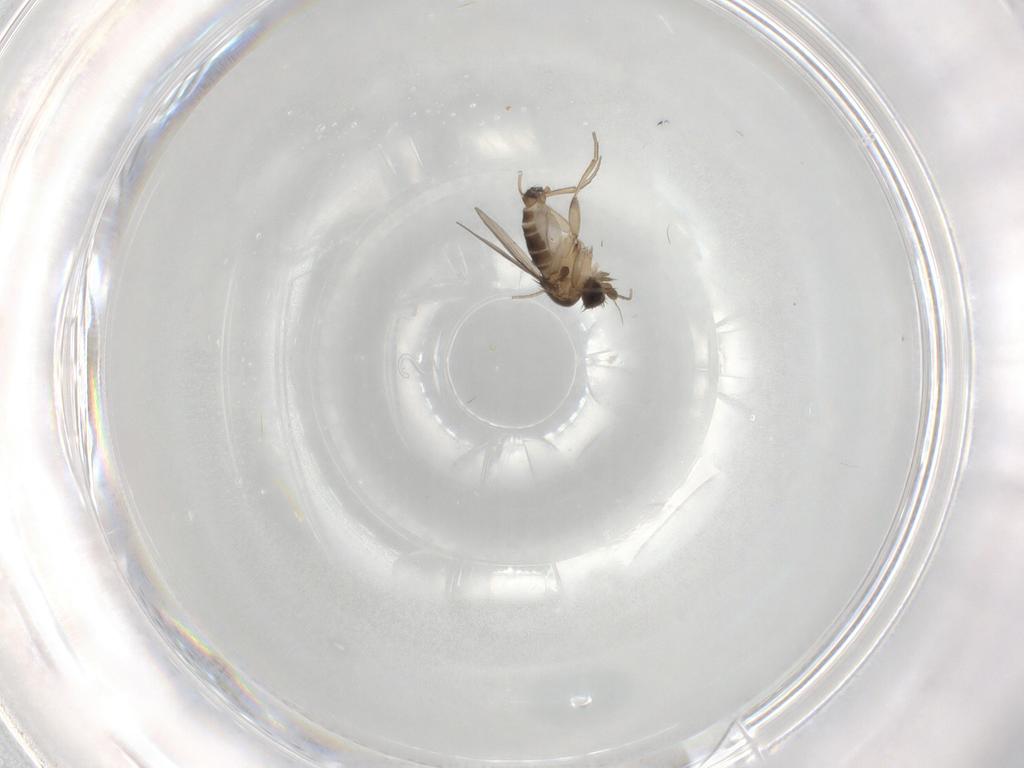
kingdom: Animalia
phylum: Arthropoda
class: Insecta
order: Diptera
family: Phoridae
